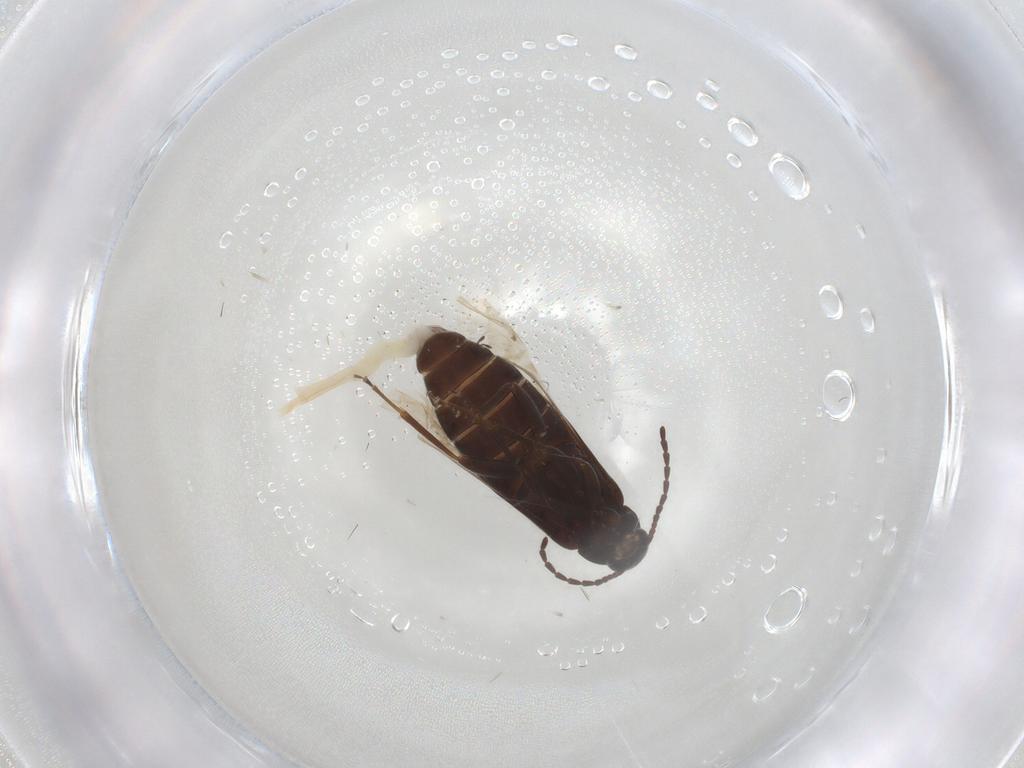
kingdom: Animalia
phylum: Arthropoda
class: Insecta
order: Coleoptera
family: Scraptiidae
